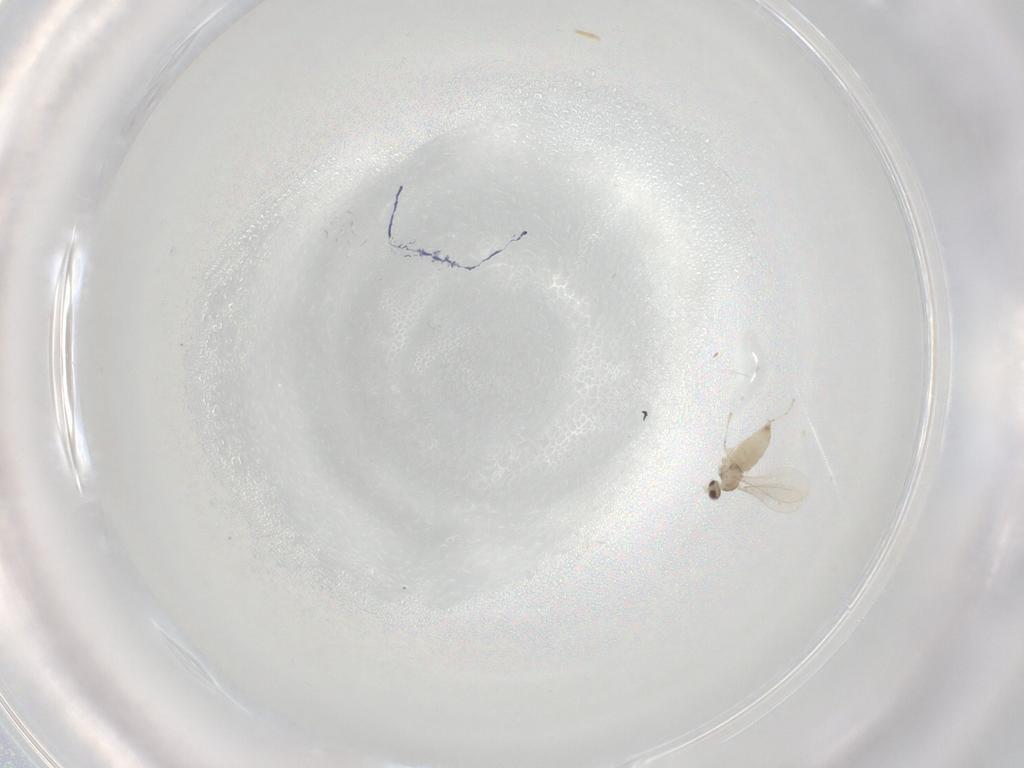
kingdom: Animalia
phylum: Arthropoda
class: Insecta
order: Diptera
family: Cecidomyiidae
